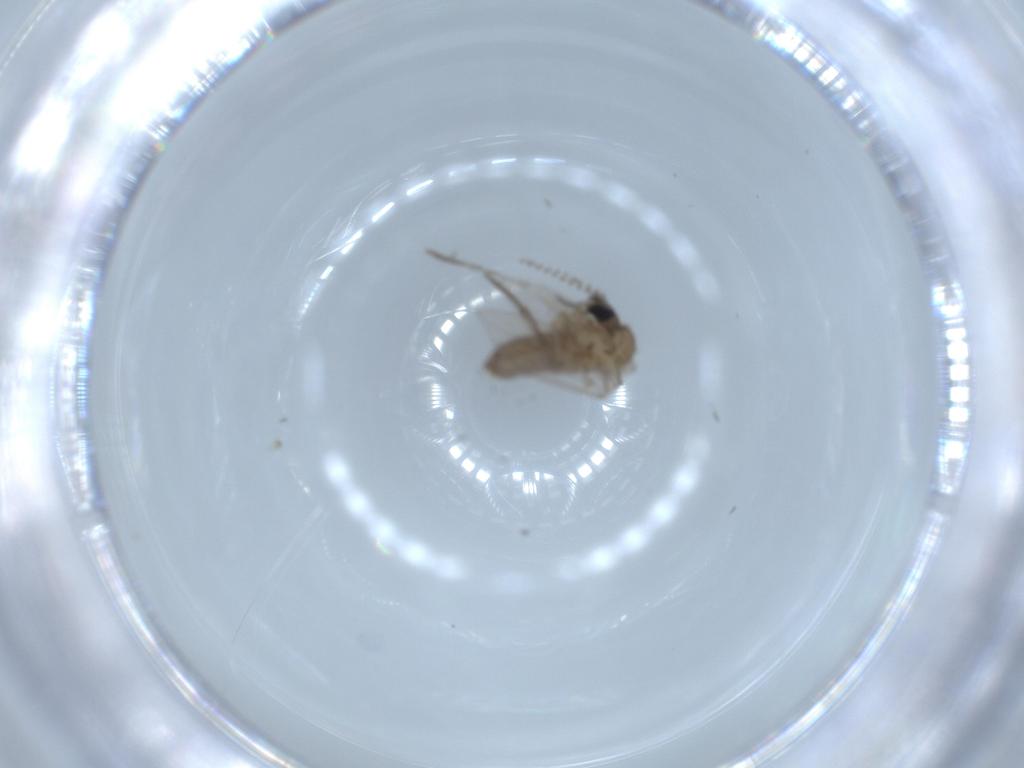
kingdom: Animalia
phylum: Arthropoda
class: Insecta
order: Diptera
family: Psychodidae
